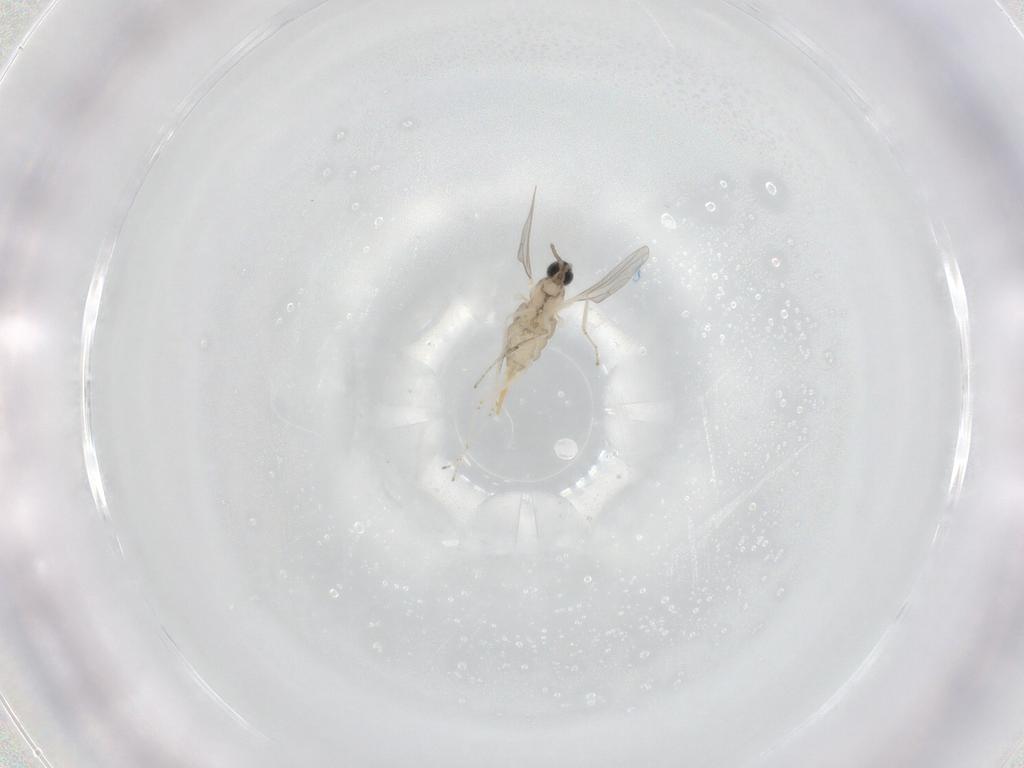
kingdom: Animalia
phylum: Arthropoda
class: Insecta
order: Diptera
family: Cecidomyiidae
